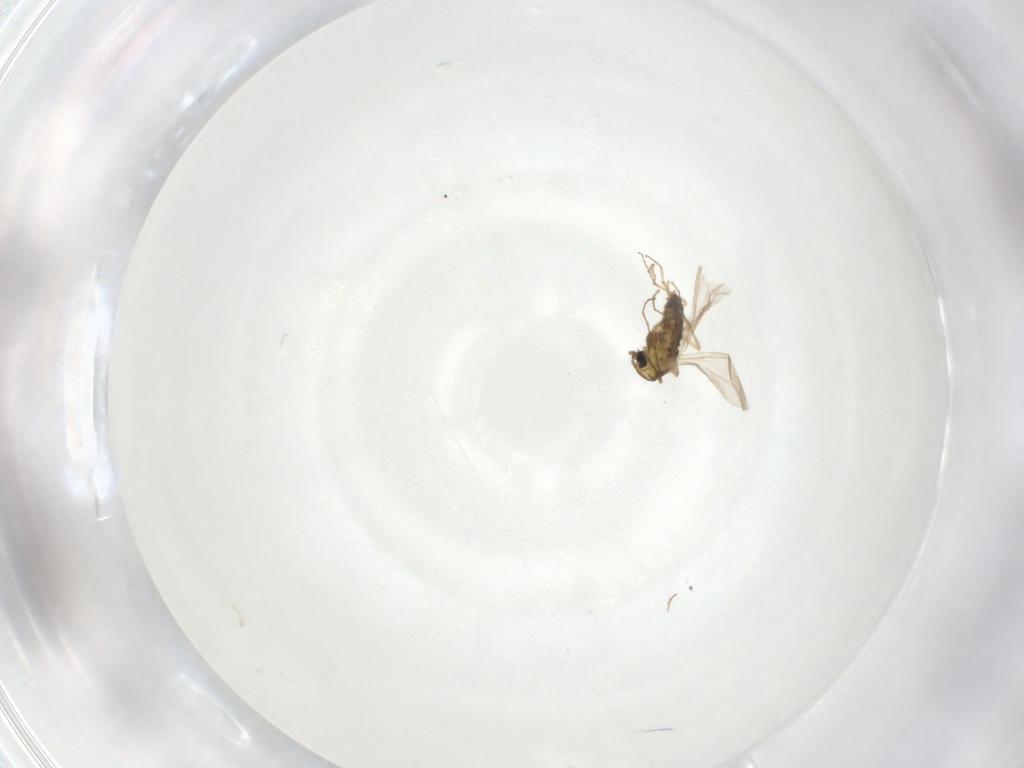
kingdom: Animalia
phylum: Arthropoda
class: Insecta
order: Diptera
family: Chironomidae
